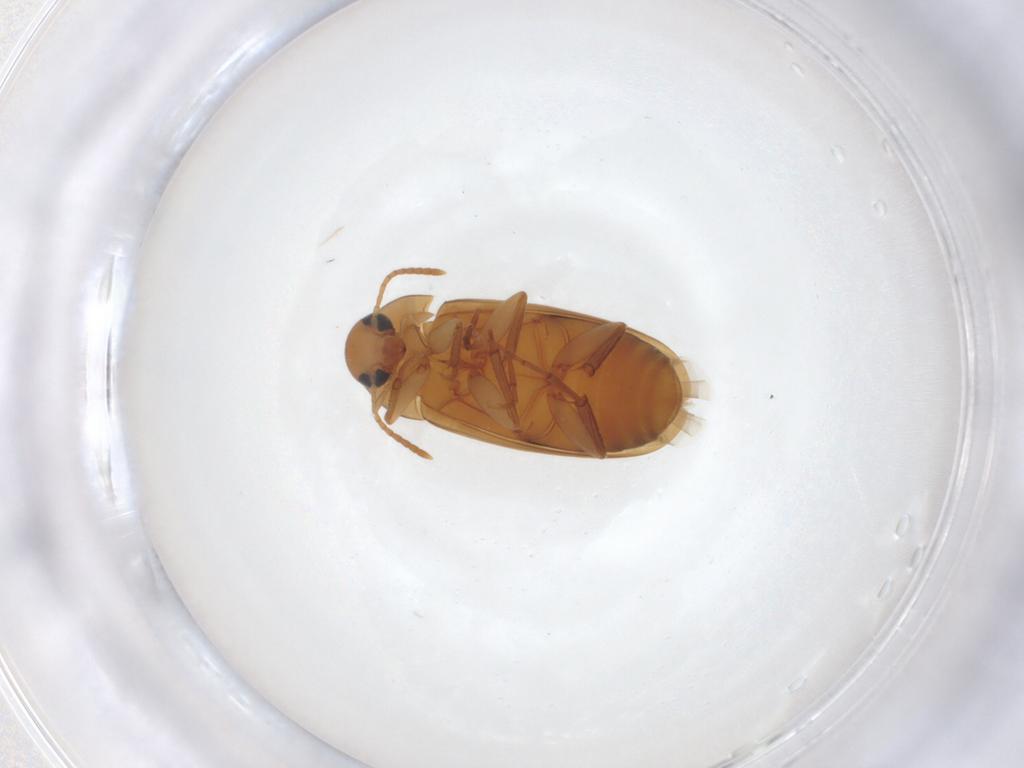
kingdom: Animalia
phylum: Arthropoda
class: Insecta
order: Coleoptera
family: Scraptiidae
